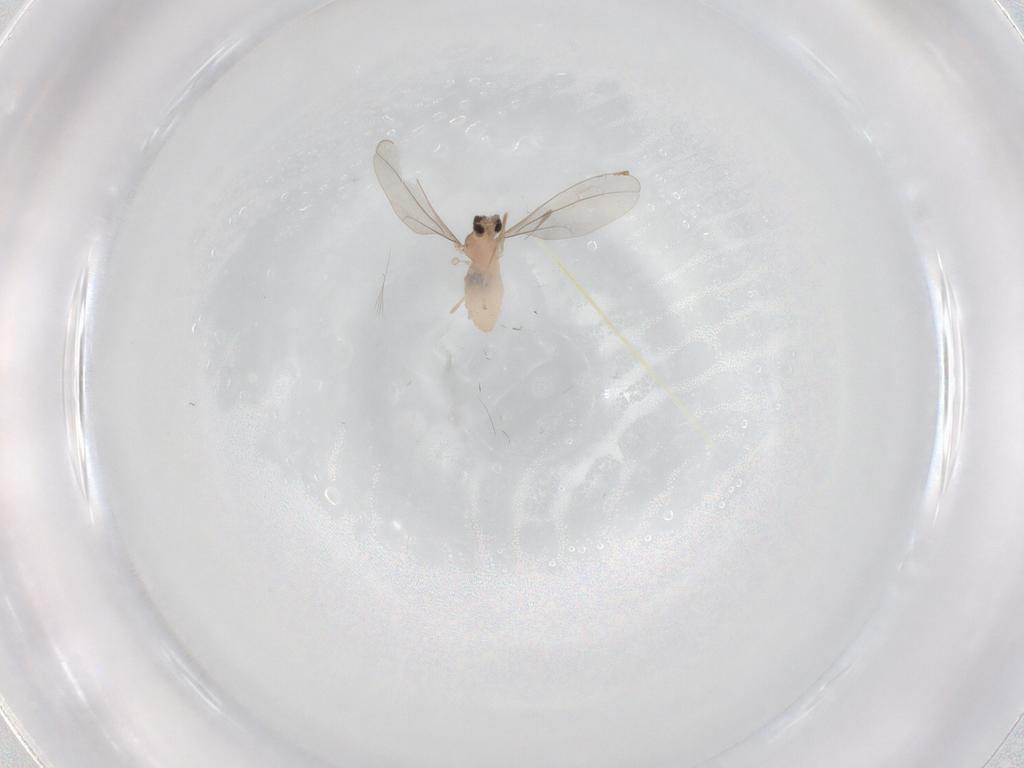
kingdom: Animalia
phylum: Arthropoda
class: Insecta
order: Diptera
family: Cecidomyiidae
